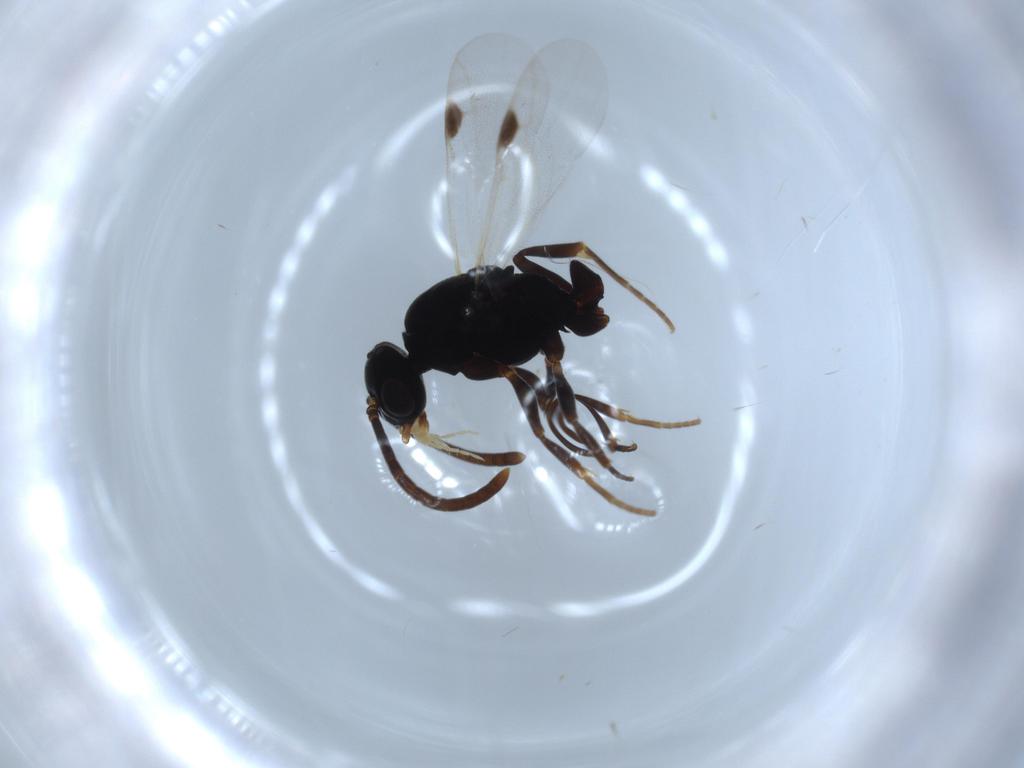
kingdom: Animalia
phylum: Arthropoda
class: Insecta
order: Hymenoptera
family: Formicidae
